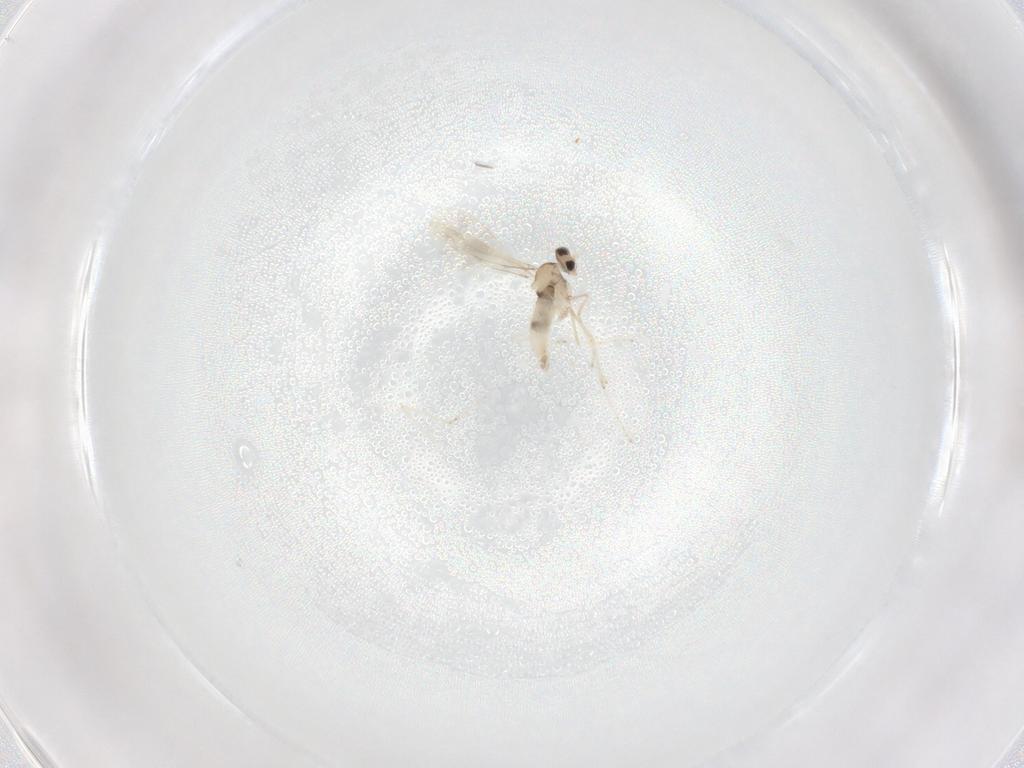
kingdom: Animalia
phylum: Arthropoda
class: Insecta
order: Diptera
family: Cecidomyiidae
